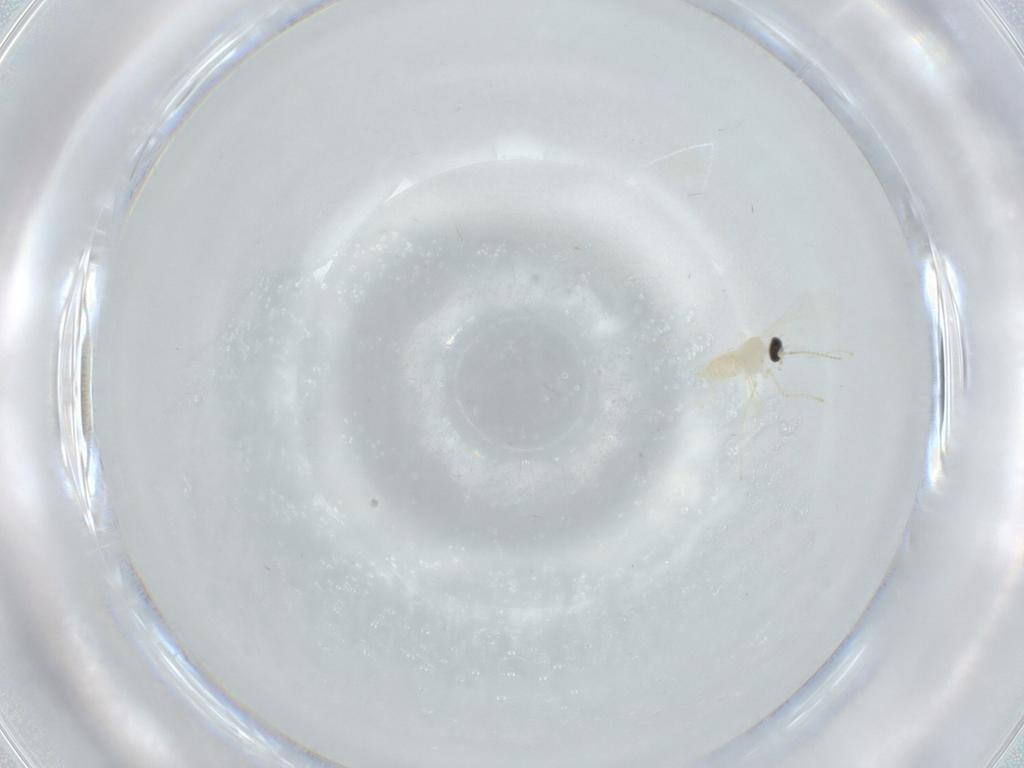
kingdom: Animalia
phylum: Arthropoda
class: Insecta
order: Diptera
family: Cecidomyiidae
